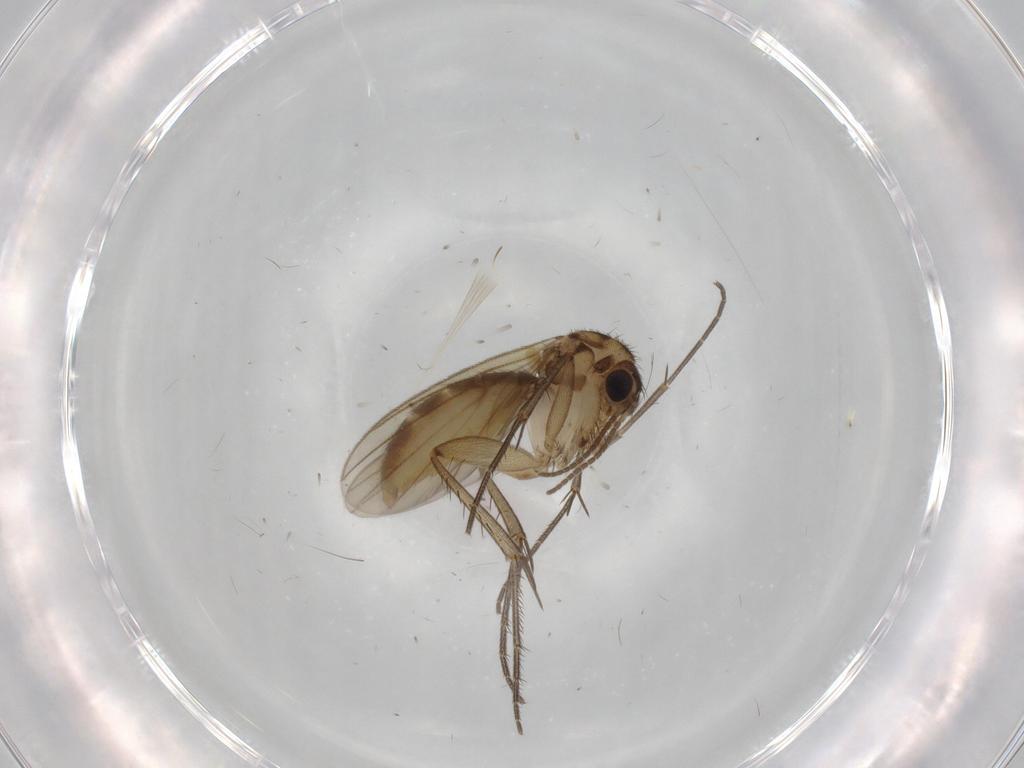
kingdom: Animalia
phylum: Arthropoda
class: Insecta
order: Diptera
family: Mycetophilidae
